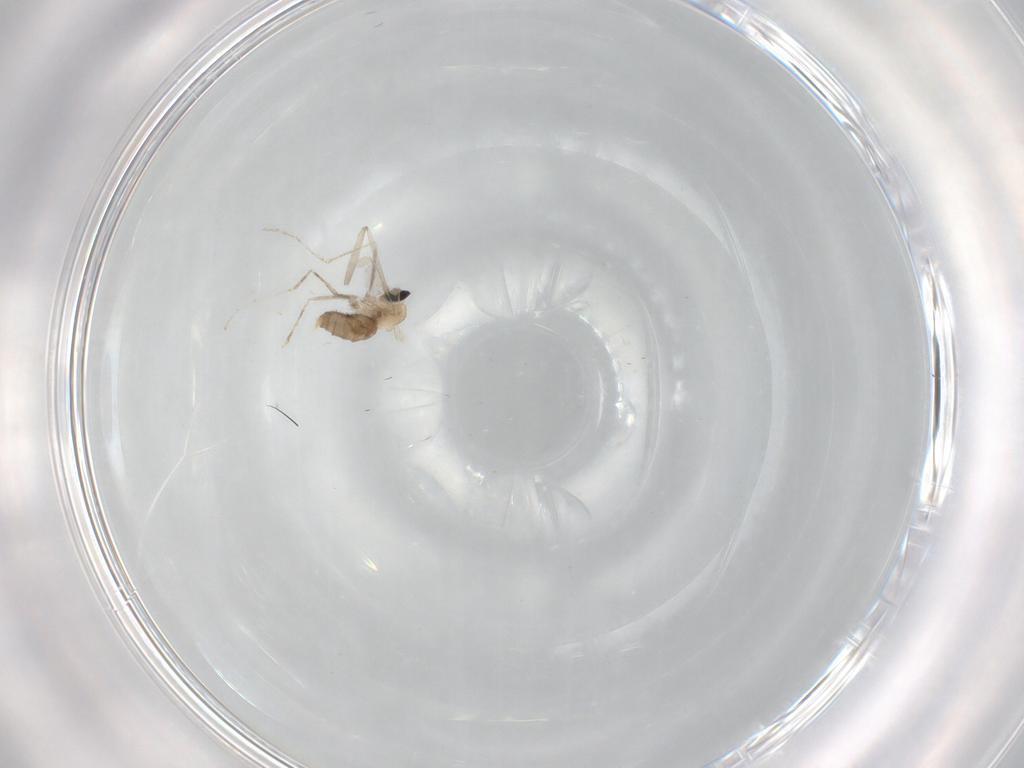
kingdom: Animalia
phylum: Arthropoda
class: Insecta
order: Diptera
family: Cecidomyiidae
